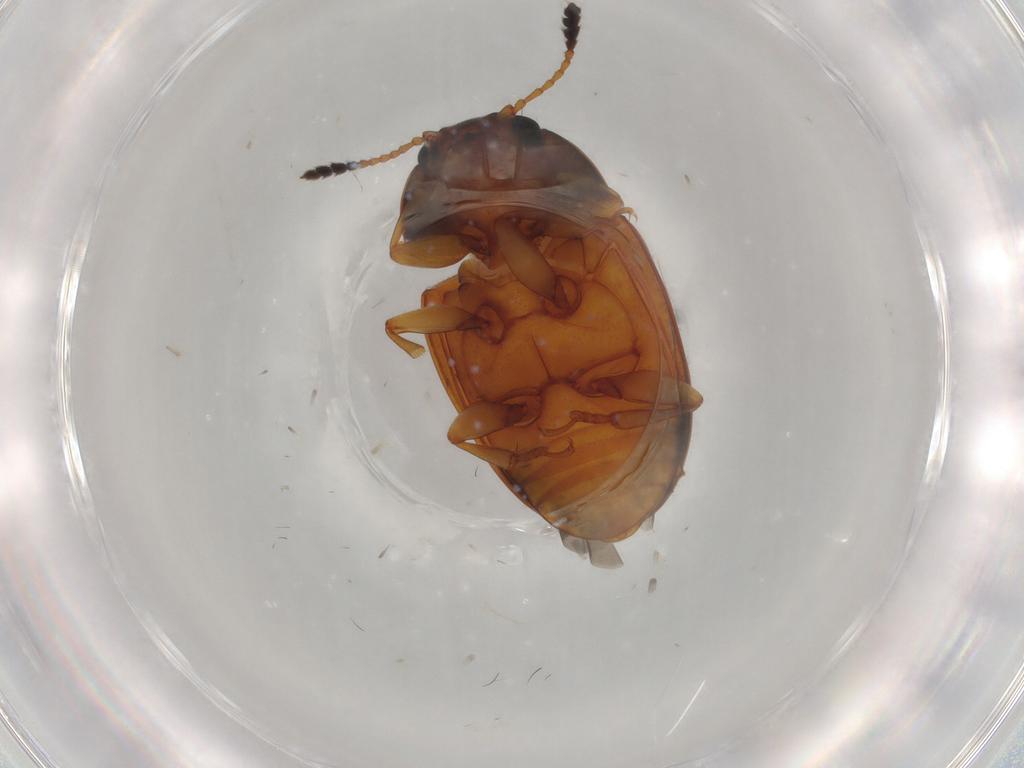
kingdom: Animalia
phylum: Arthropoda
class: Insecta
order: Coleoptera
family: Erotylidae
